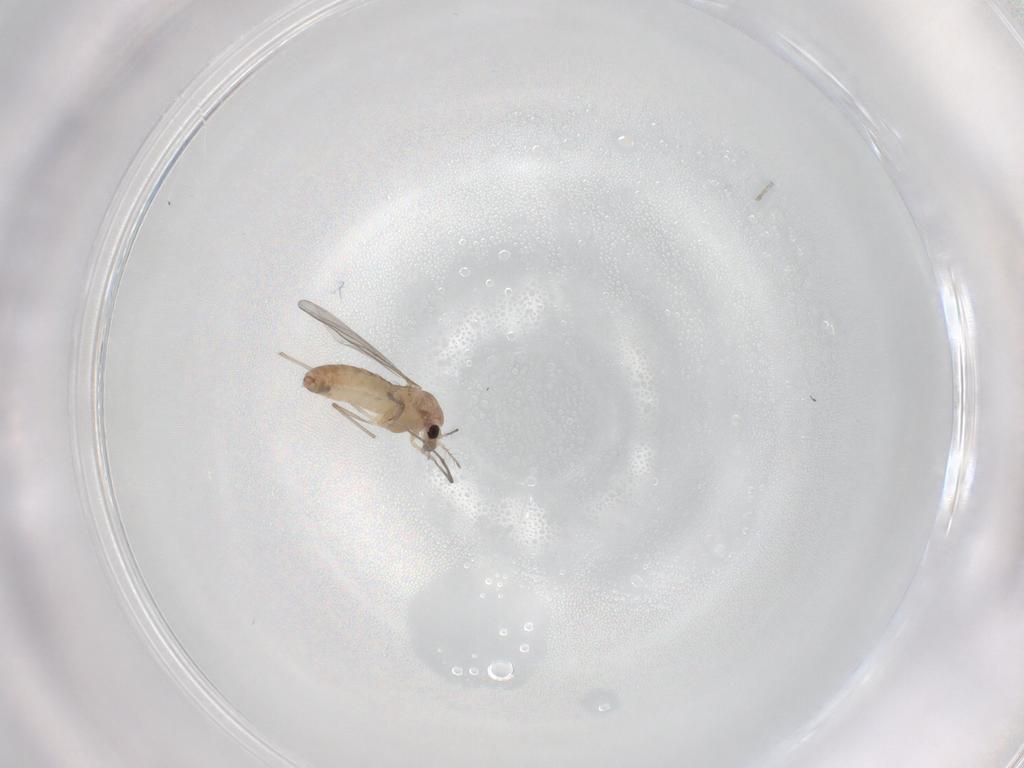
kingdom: Animalia
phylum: Arthropoda
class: Insecta
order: Diptera
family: Chironomidae
